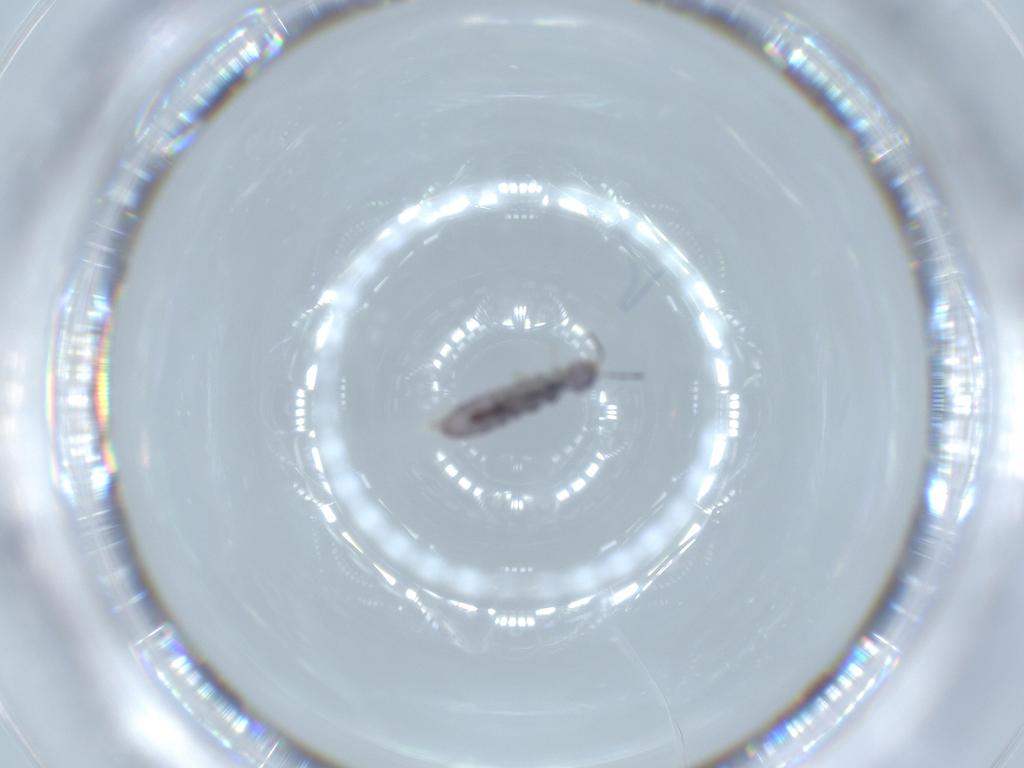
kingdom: Animalia
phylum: Arthropoda
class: Collembola
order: Entomobryomorpha
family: Isotomidae
